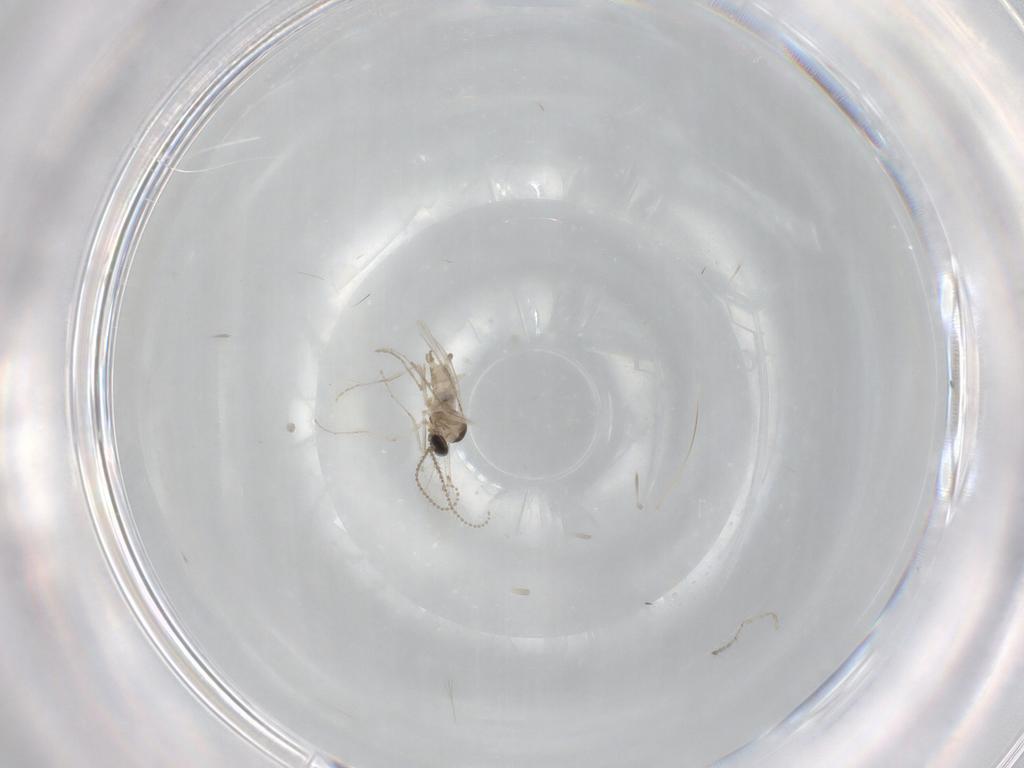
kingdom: Animalia
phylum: Arthropoda
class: Insecta
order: Diptera
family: Cecidomyiidae
